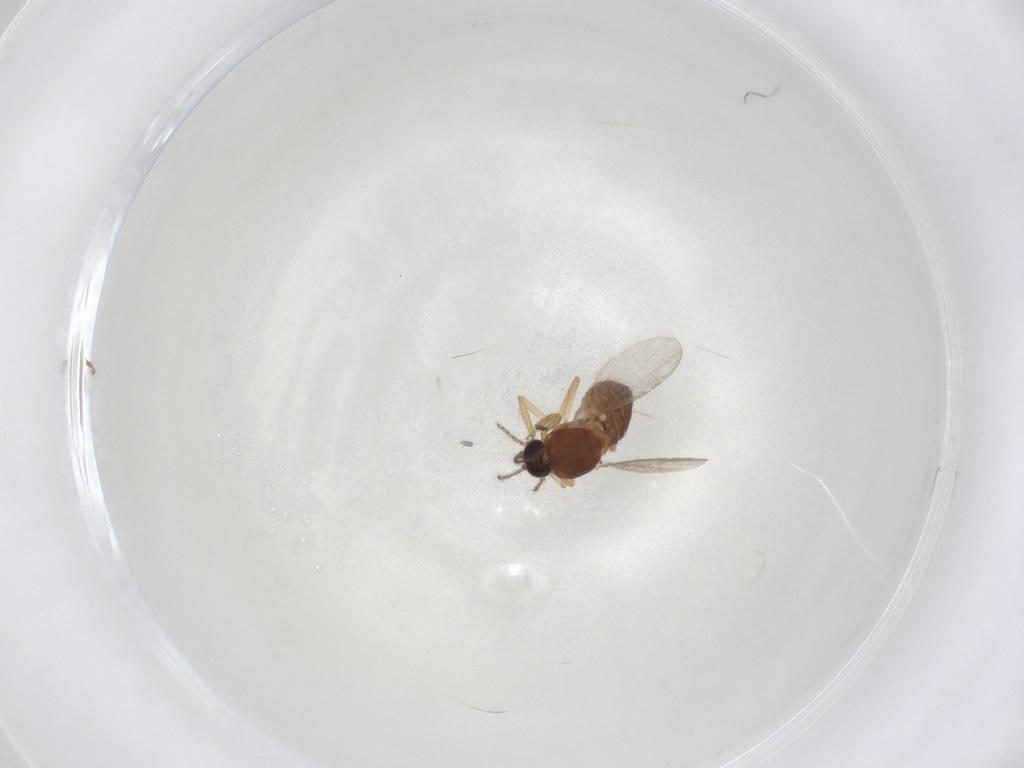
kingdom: Animalia
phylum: Arthropoda
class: Insecta
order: Diptera
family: Ceratopogonidae
